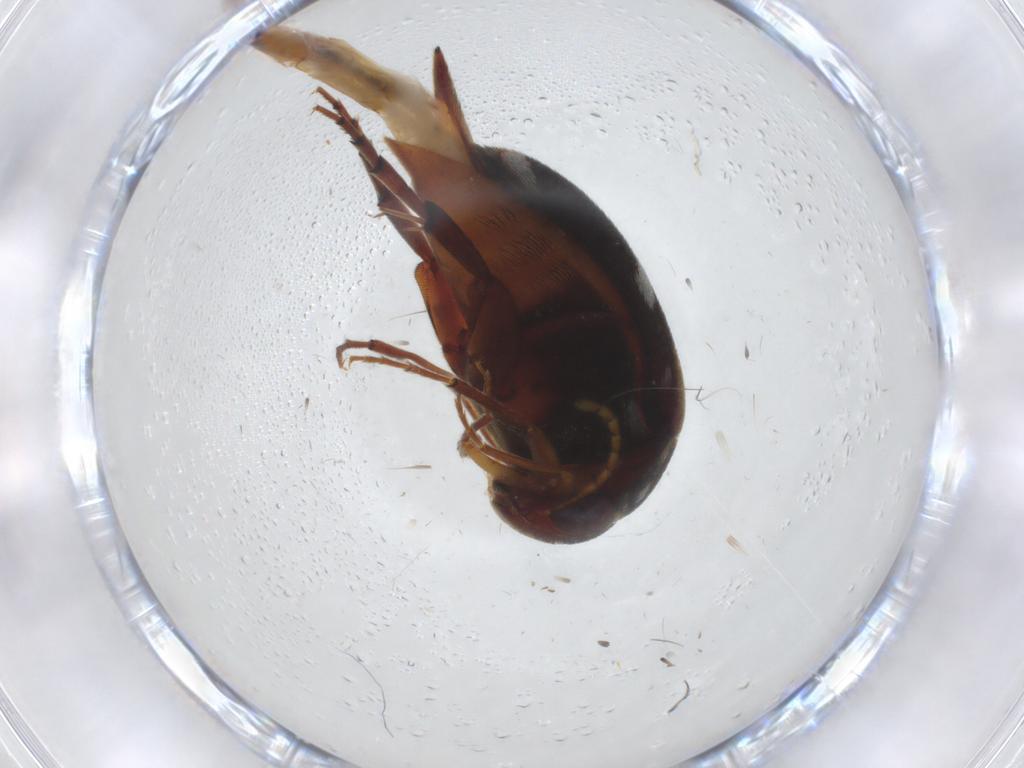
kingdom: Animalia
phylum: Arthropoda
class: Insecta
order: Coleoptera
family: Mordellidae
